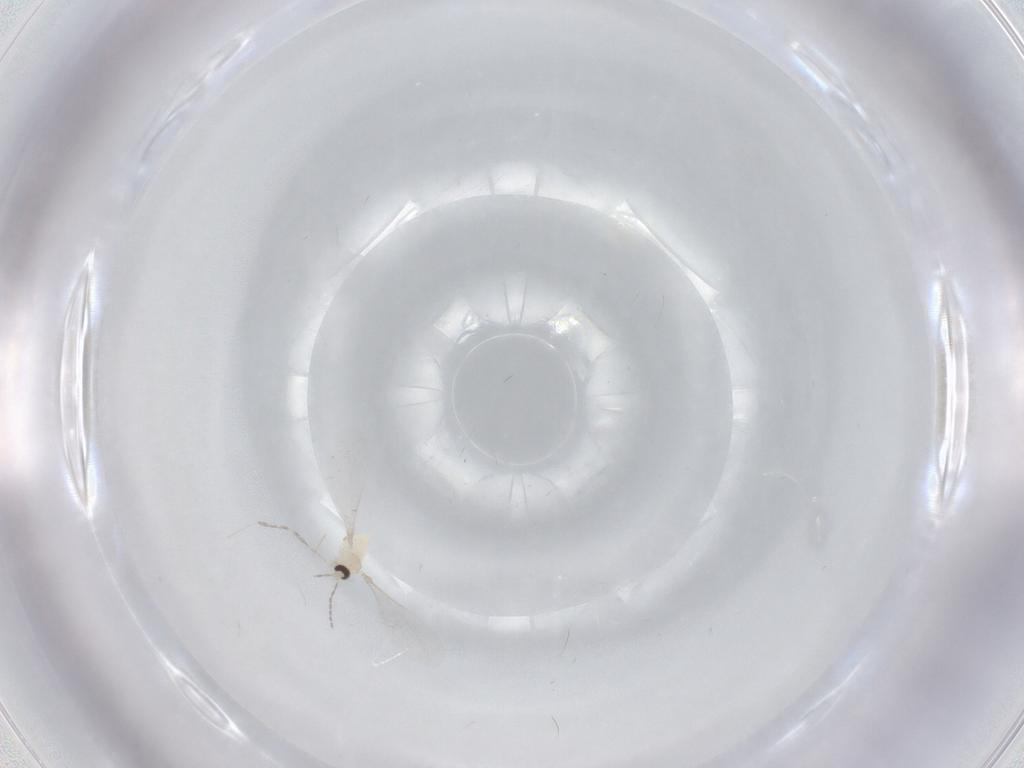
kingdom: Animalia
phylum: Arthropoda
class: Insecta
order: Diptera
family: Cecidomyiidae
